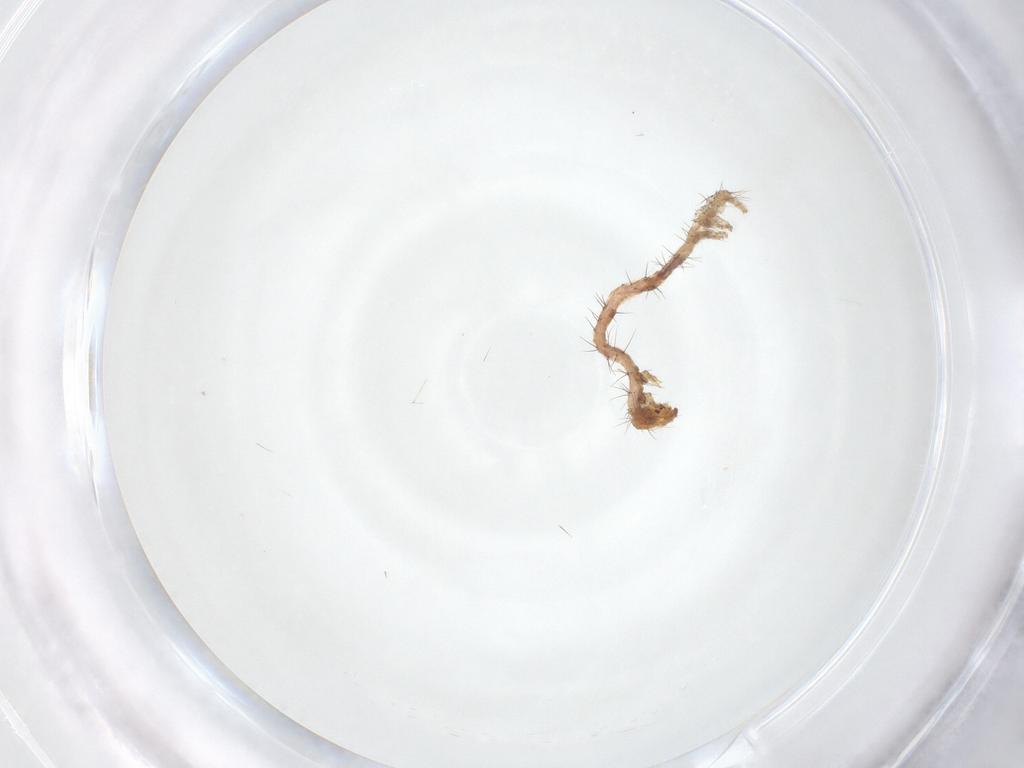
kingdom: Animalia
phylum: Arthropoda
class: Insecta
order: Lepidoptera
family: Erebidae
